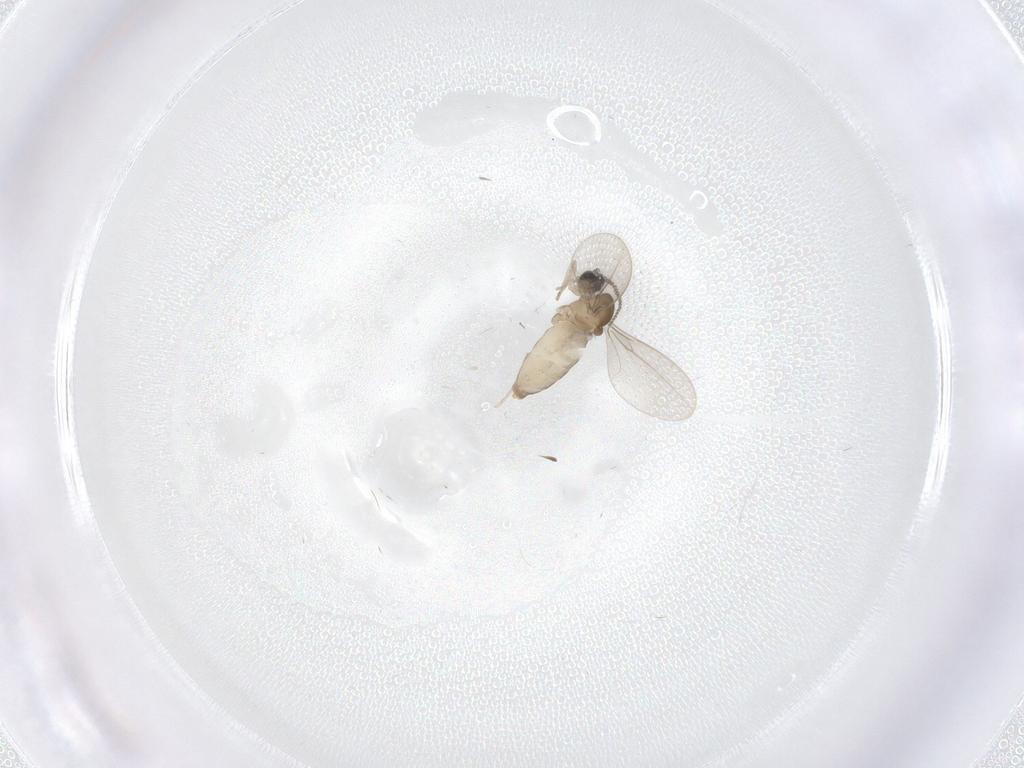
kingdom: Animalia
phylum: Arthropoda
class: Insecta
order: Diptera
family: Cecidomyiidae
